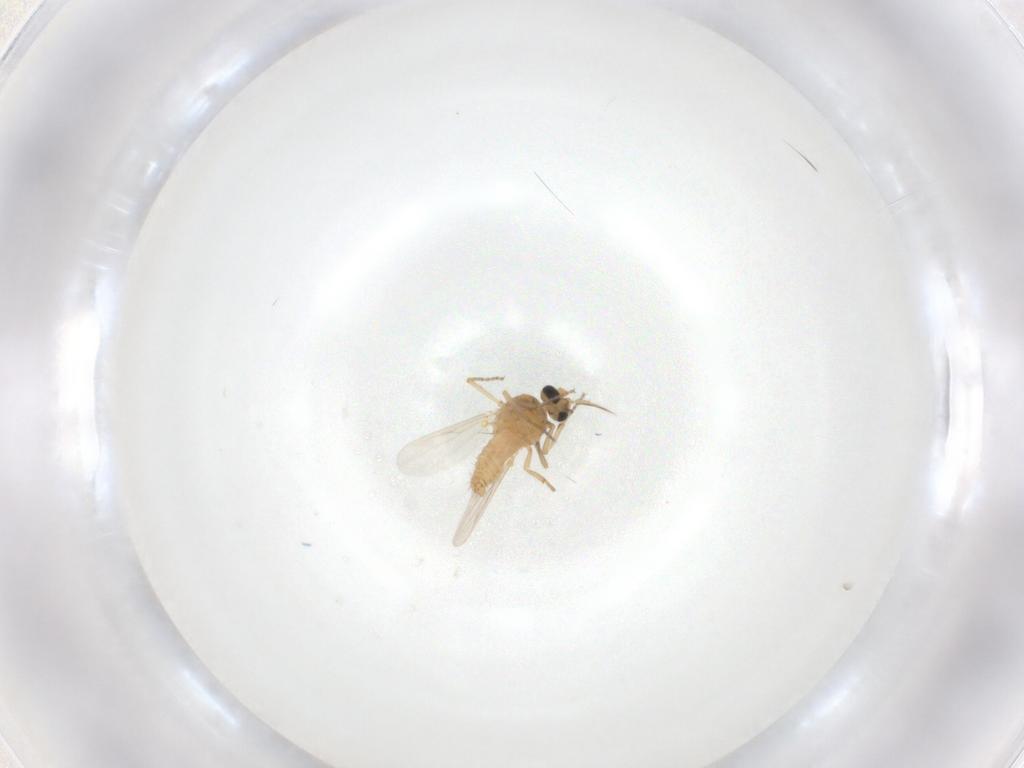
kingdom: Animalia
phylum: Arthropoda
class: Insecta
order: Diptera
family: Ceratopogonidae
